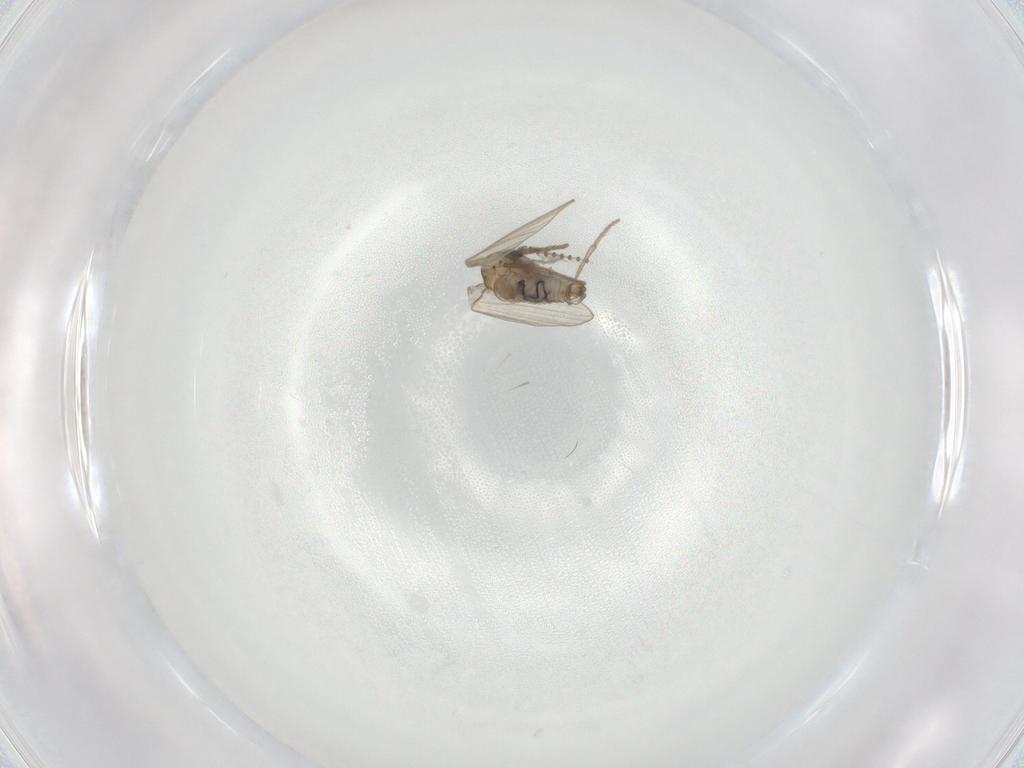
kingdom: Animalia
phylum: Arthropoda
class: Insecta
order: Diptera
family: Psychodidae
